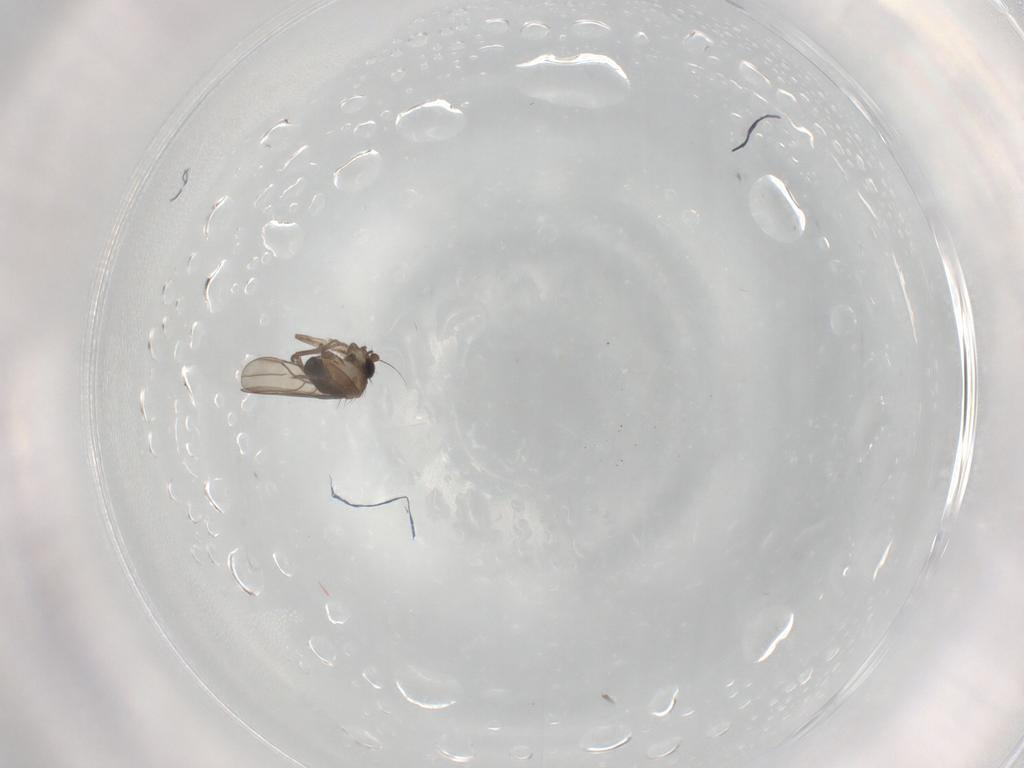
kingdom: Animalia
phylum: Arthropoda
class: Insecta
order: Diptera
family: Phoridae
